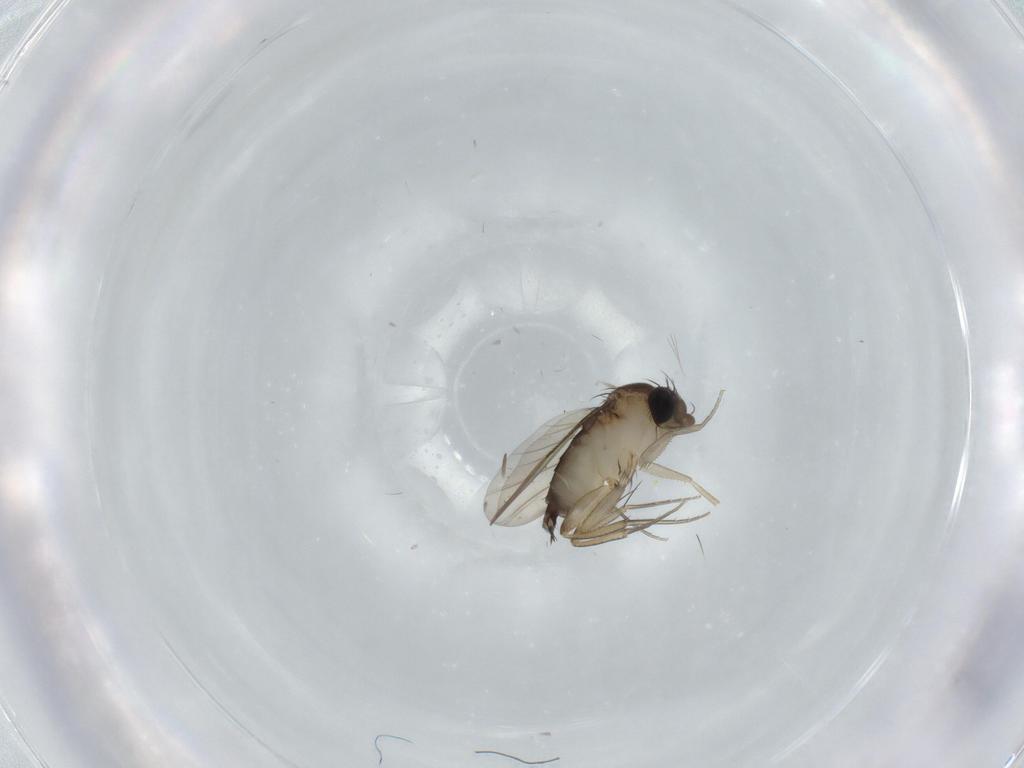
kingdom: Animalia
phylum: Arthropoda
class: Insecta
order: Diptera
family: Phoridae
